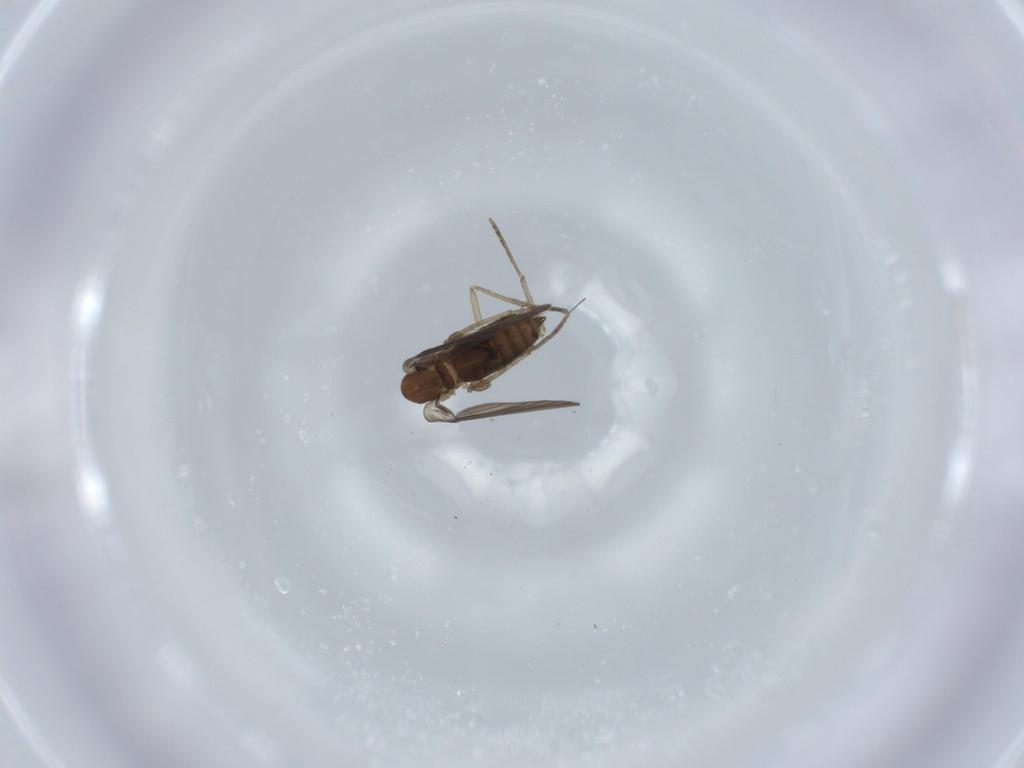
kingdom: Animalia
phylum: Arthropoda
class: Insecta
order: Diptera
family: Psychodidae
